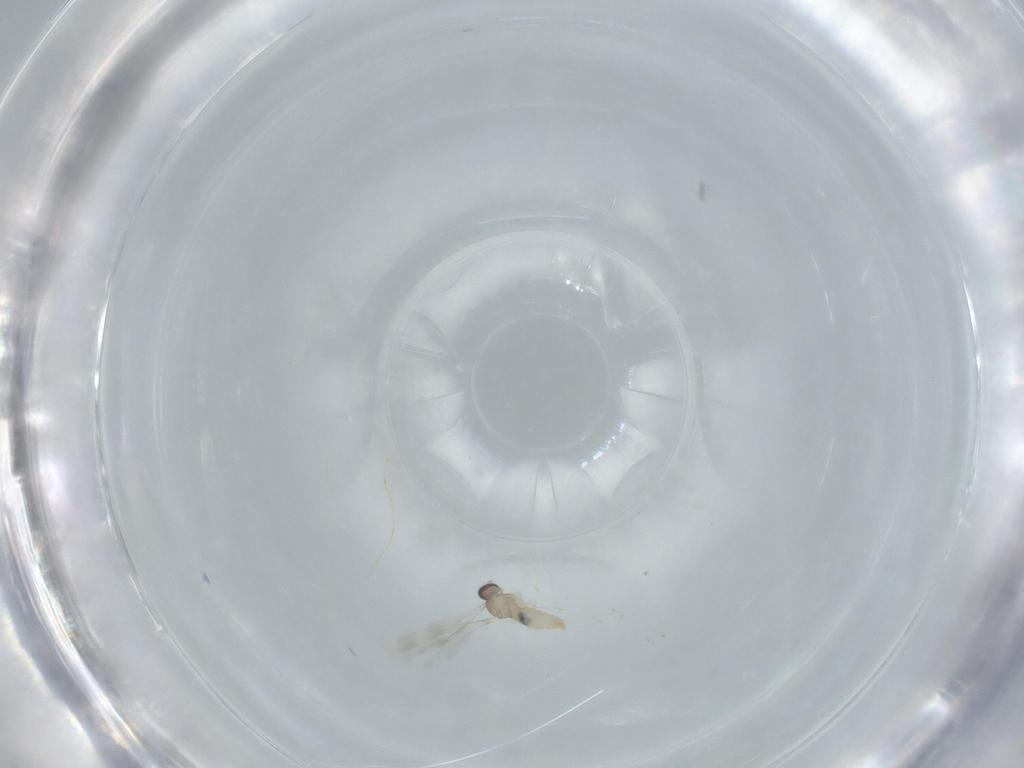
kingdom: Animalia
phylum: Arthropoda
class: Insecta
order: Diptera
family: Cecidomyiidae
